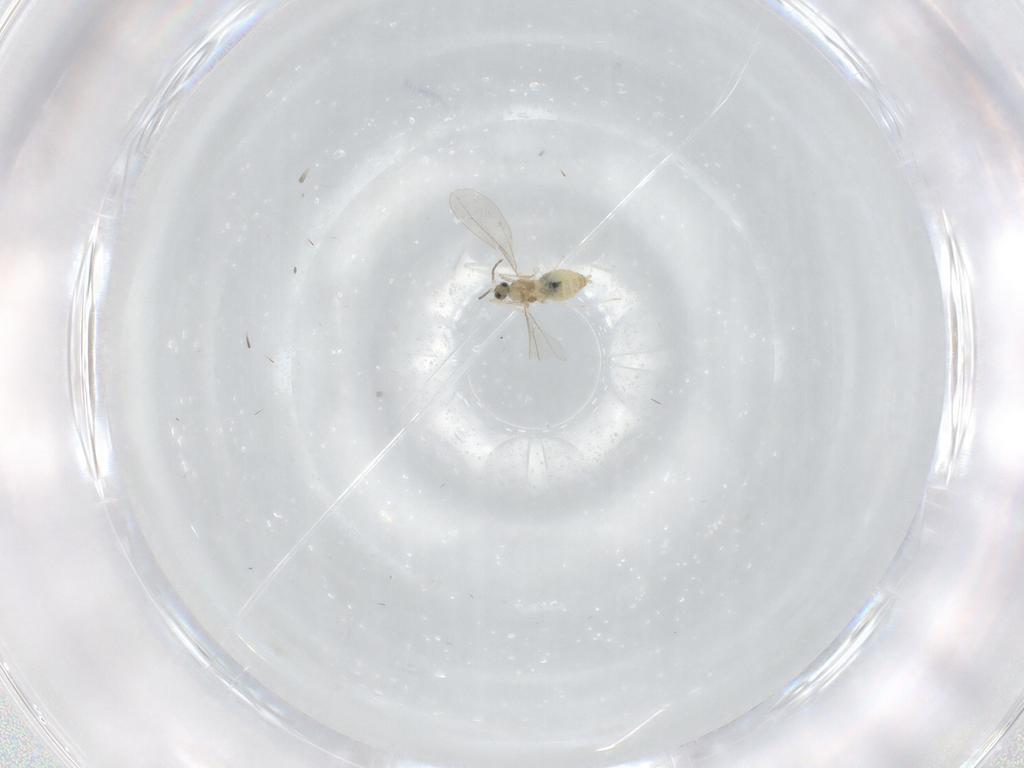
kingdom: Animalia
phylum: Arthropoda
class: Insecta
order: Diptera
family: Cecidomyiidae
